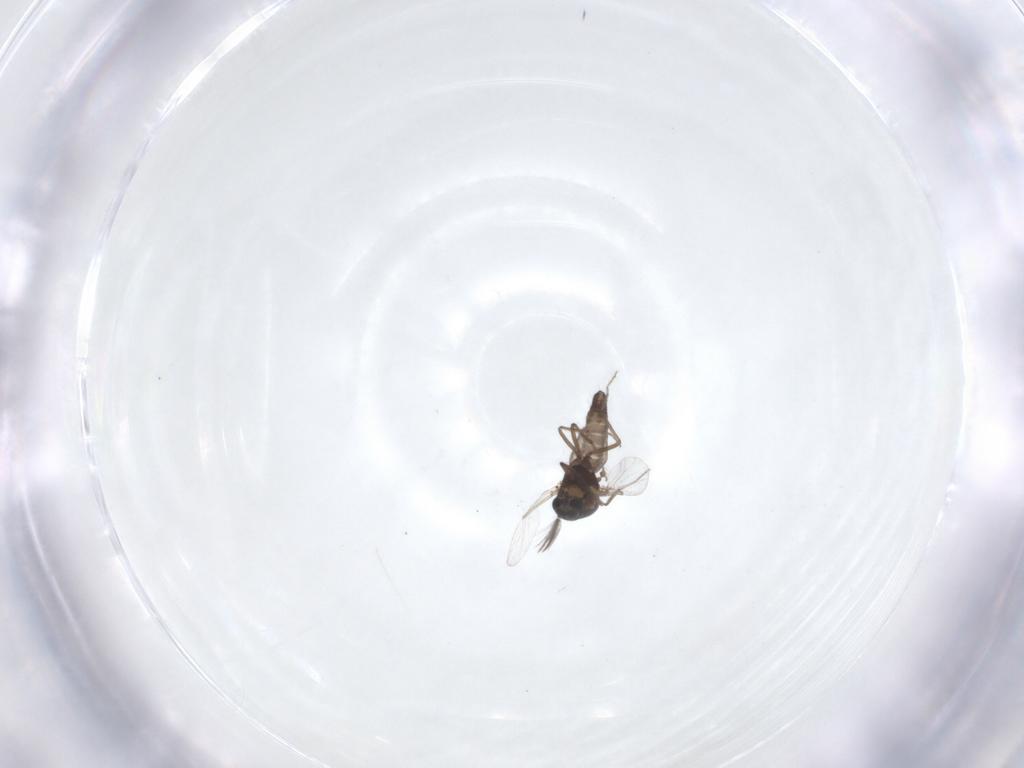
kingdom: Animalia
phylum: Arthropoda
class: Insecta
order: Diptera
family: Ceratopogonidae
